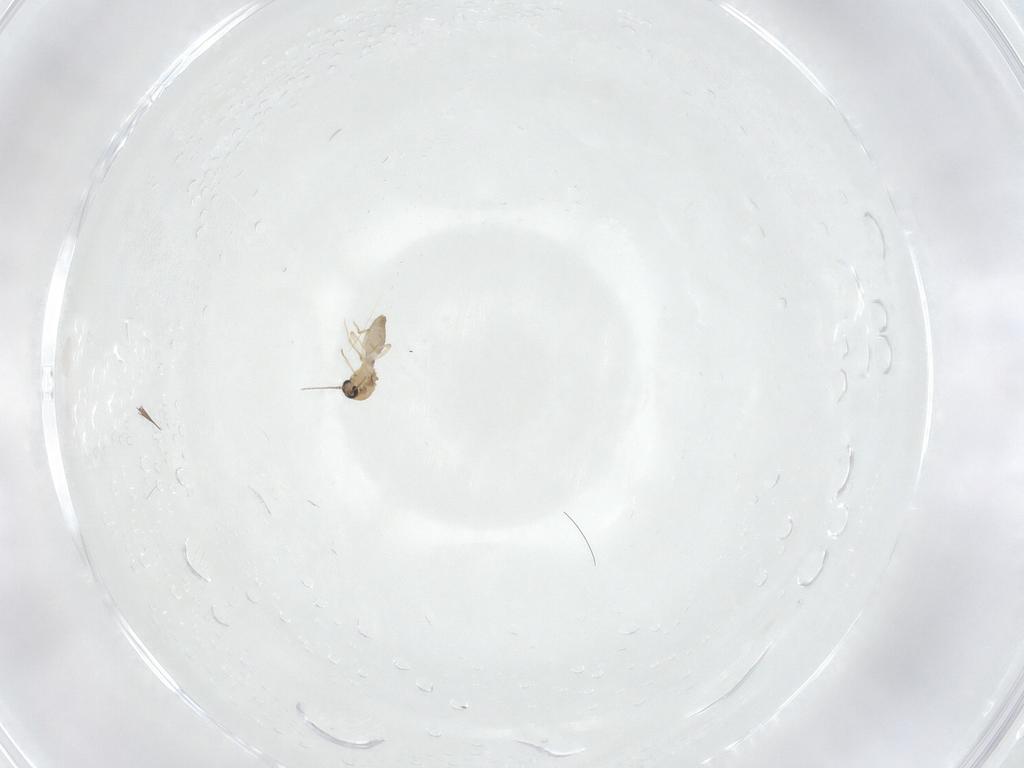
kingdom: Animalia
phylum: Arthropoda
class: Insecta
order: Diptera
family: Ceratopogonidae
